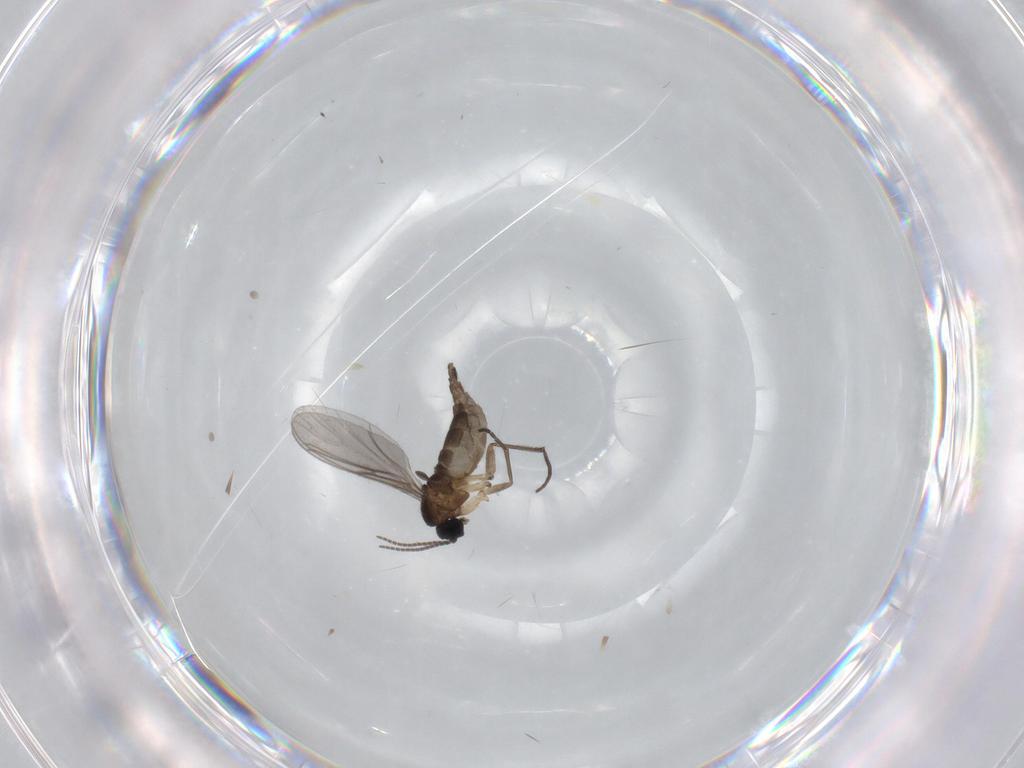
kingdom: Animalia
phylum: Arthropoda
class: Insecta
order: Diptera
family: Sciaridae
